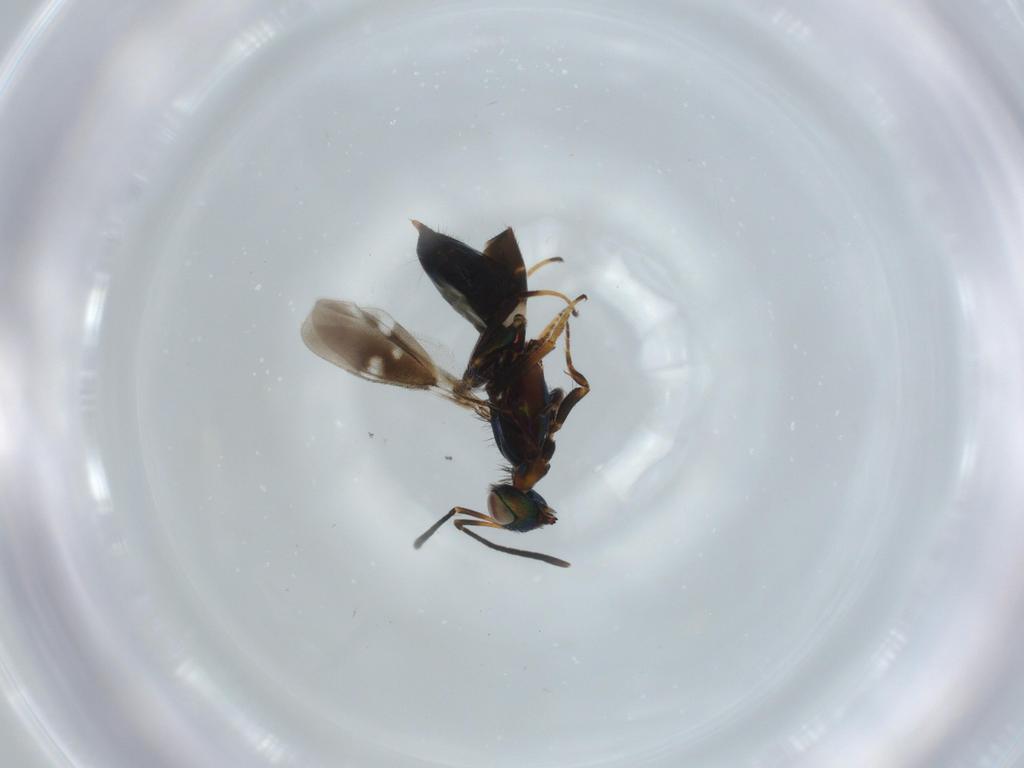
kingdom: Animalia
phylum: Arthropoda
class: Insecta
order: Hymenoptera
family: Eupelmidae
